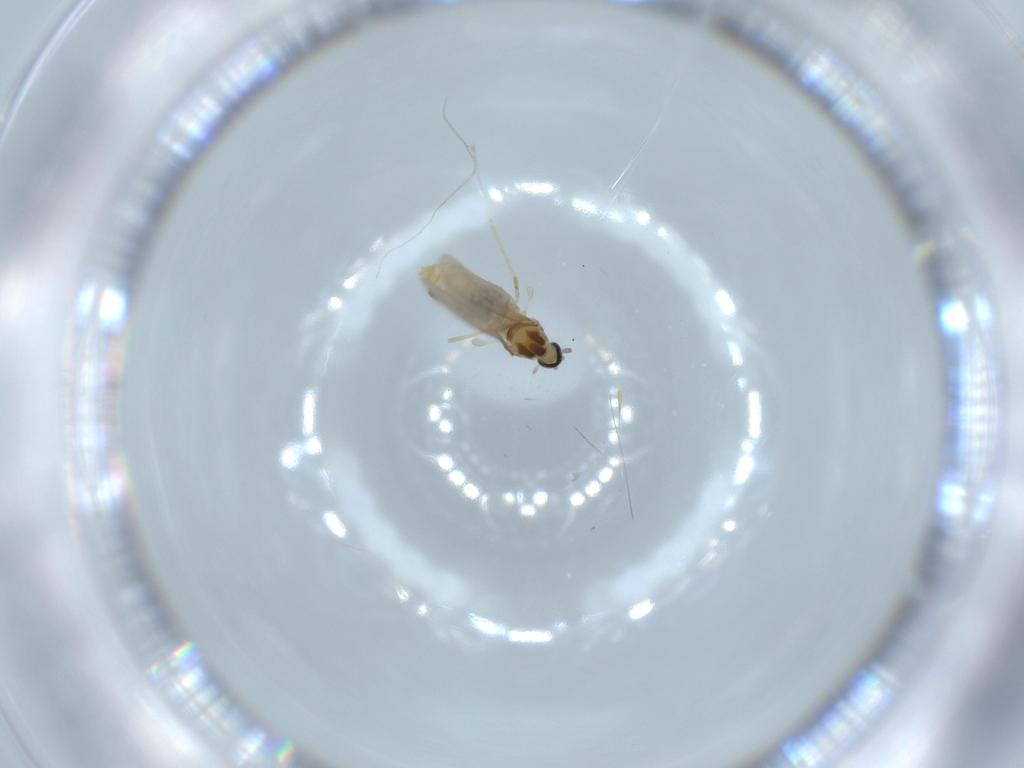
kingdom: Animalia
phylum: Arthropoda
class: Insecta
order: Diptera
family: Cecidomyiidae
